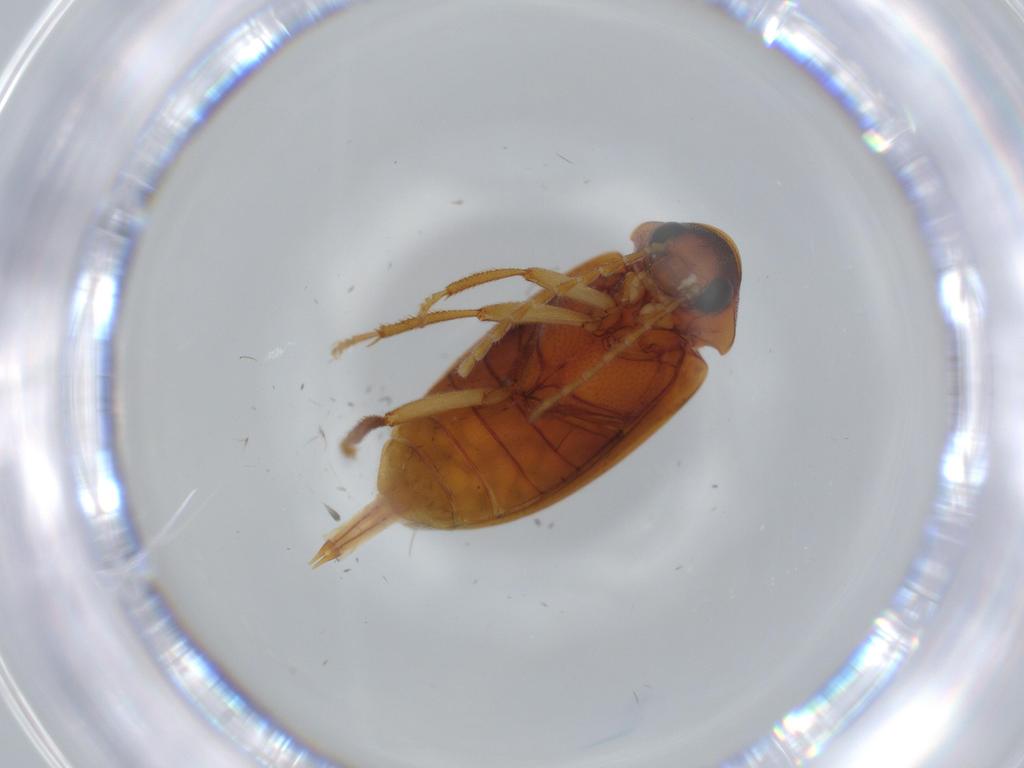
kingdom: Animalia
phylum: Arthropoda
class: Insecta
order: Coleoptera
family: Ptilodactylidae
